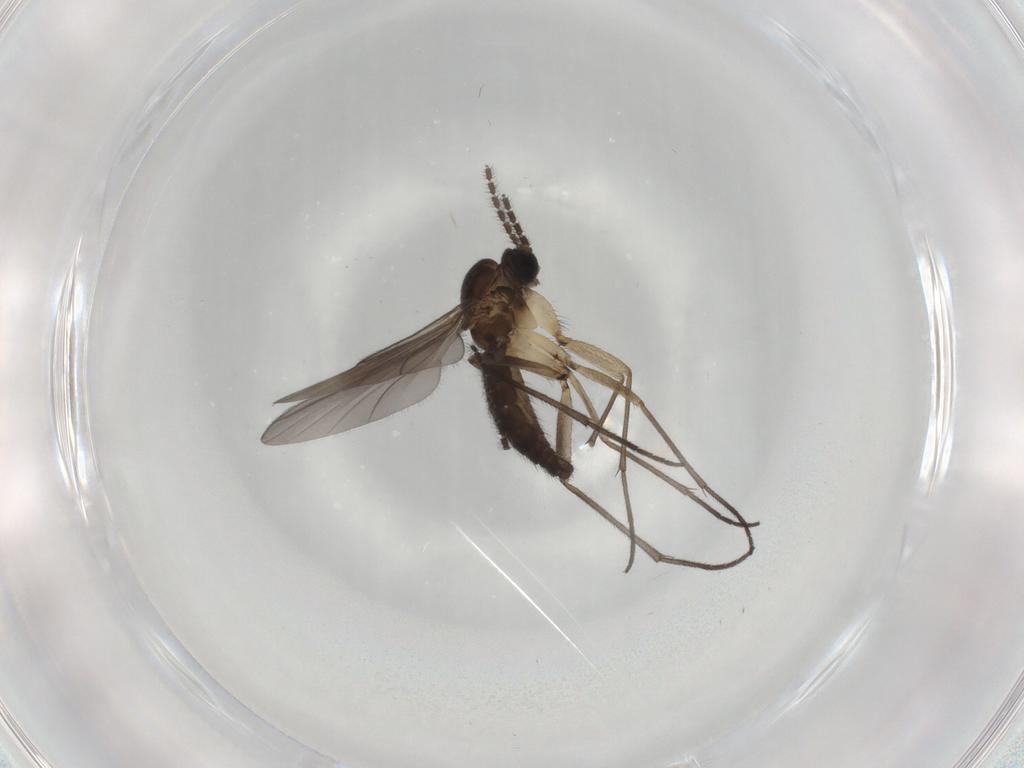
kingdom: Animalia
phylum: Arthropoda
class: Insecta
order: Diptera
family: Sciaridae
